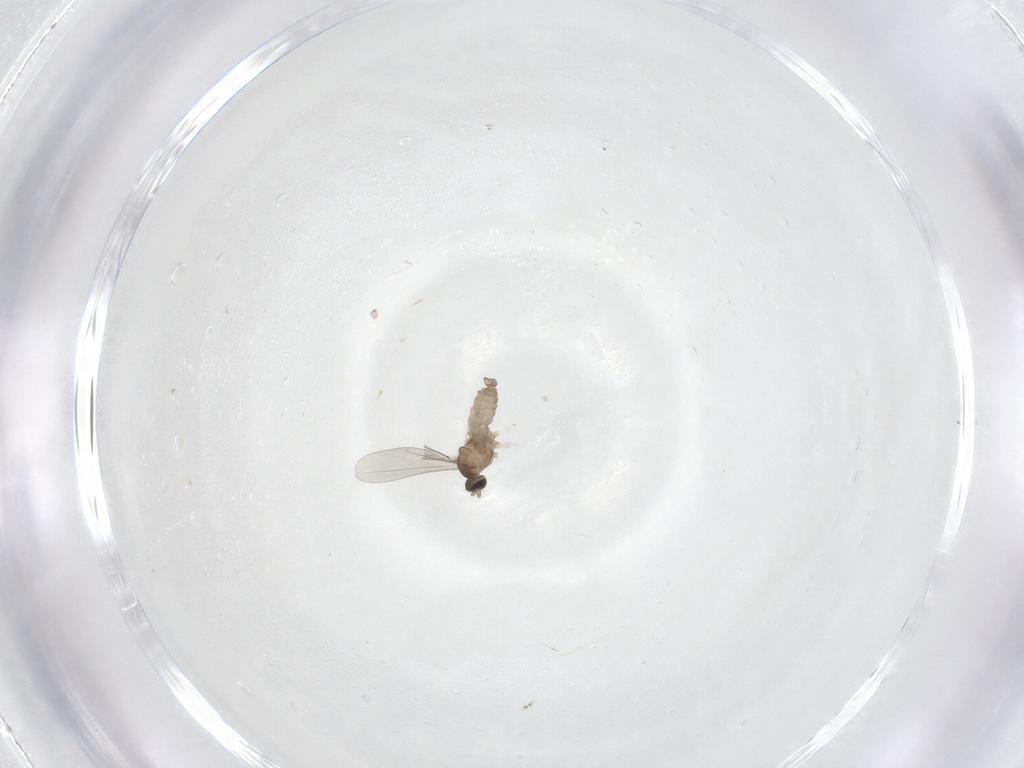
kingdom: Animalia
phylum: Arthropoda
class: Insecta
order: Diptera
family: Cecidomyiidae
